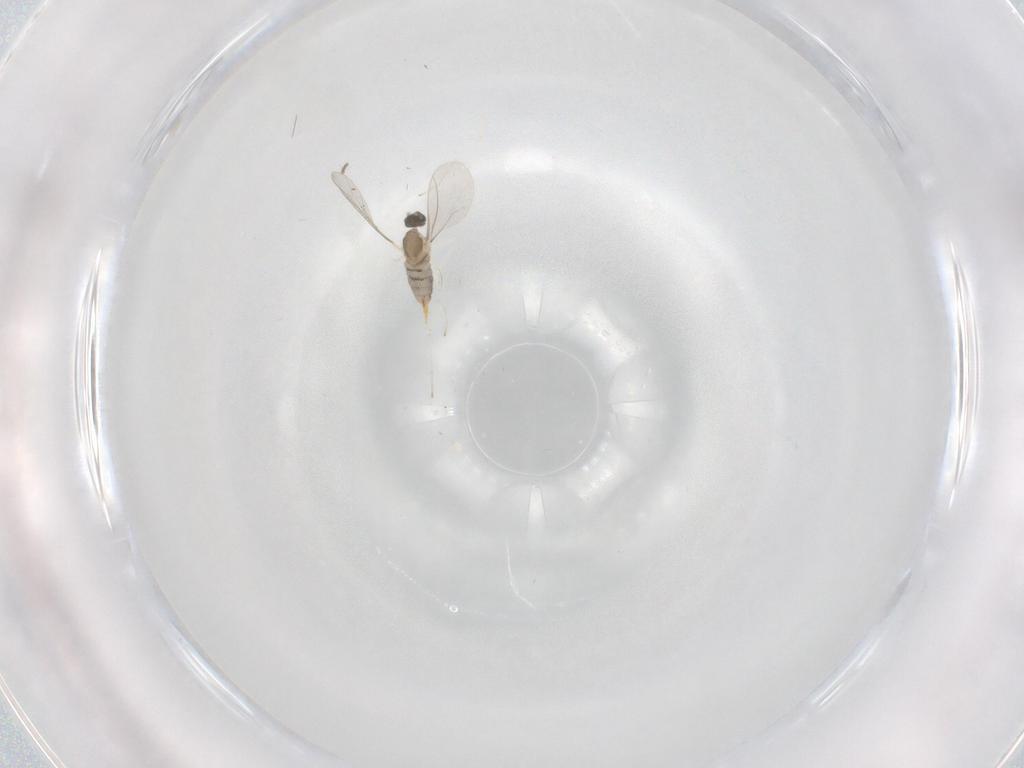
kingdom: Animalia
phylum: Arthropoda
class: Insecta
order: Diptera
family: Cecidomyiidae
